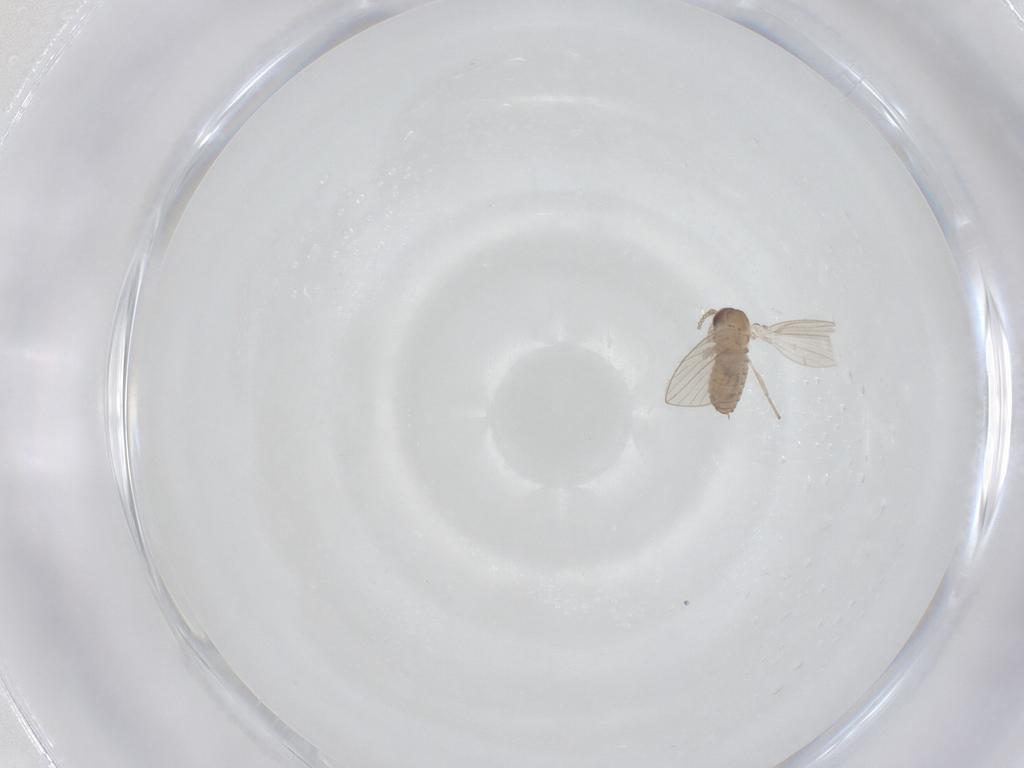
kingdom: Animalia
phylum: Arthropoda
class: Insecta
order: Diptera
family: Psychodidae
